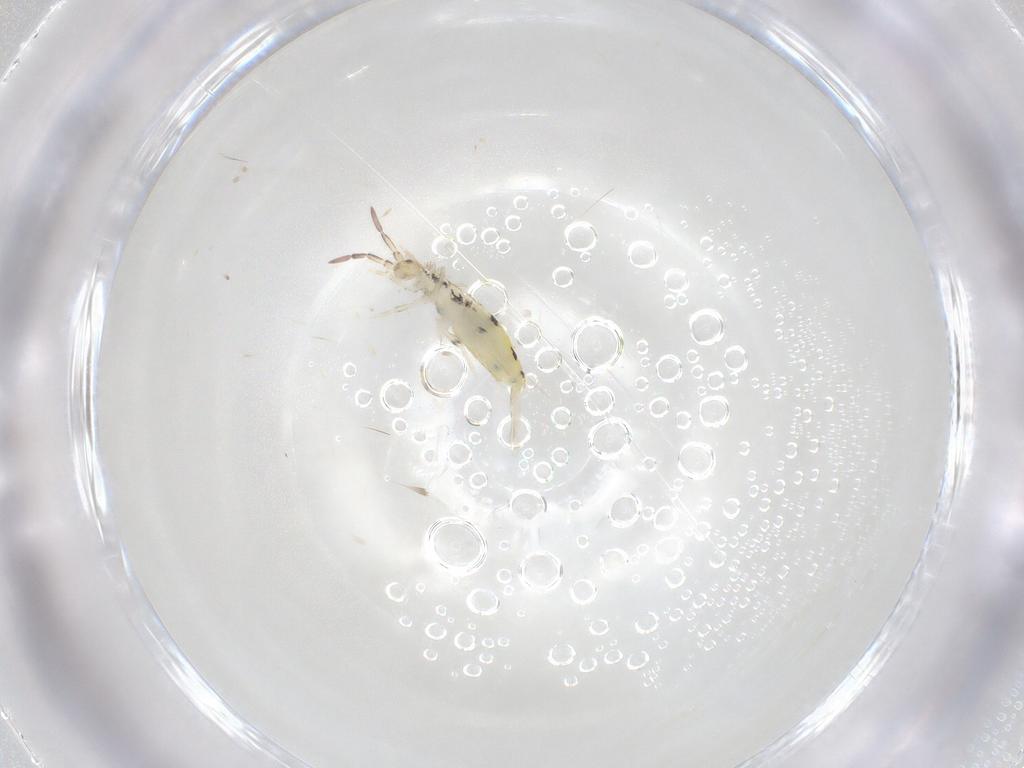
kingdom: Animalia
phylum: Arthropoda
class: Collembola
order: Entomobryomorpha
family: Entomobryidae
